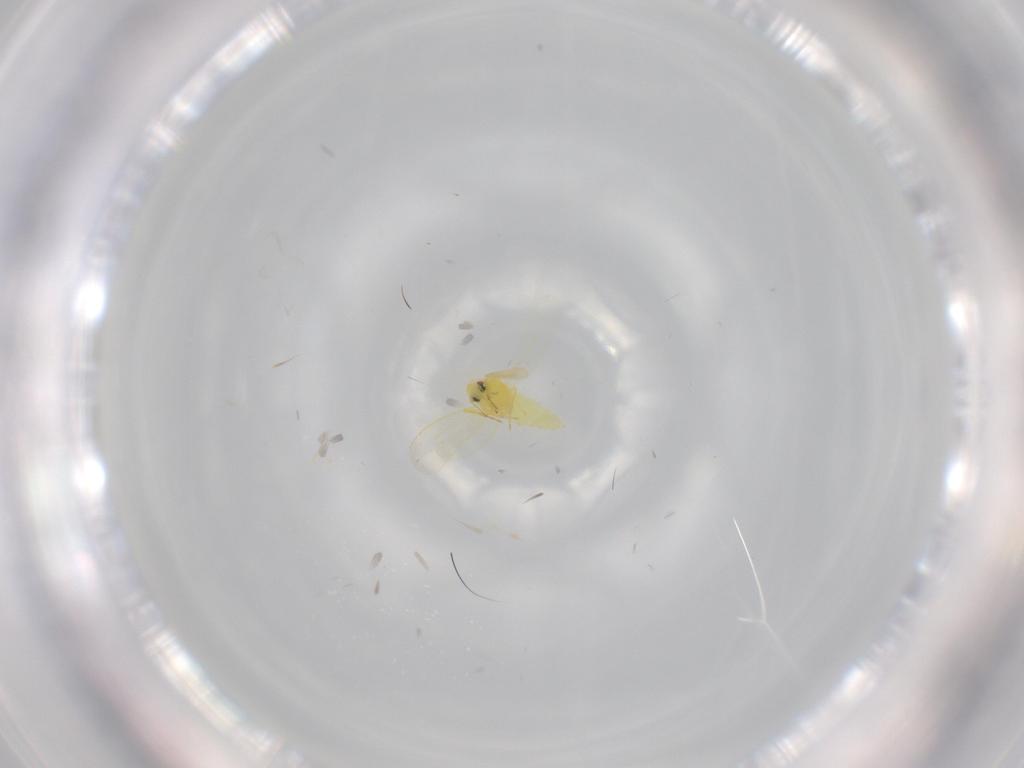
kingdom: Animalia
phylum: Arthropoda
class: Insecta
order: Hemiptera
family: Aleyrodidae
